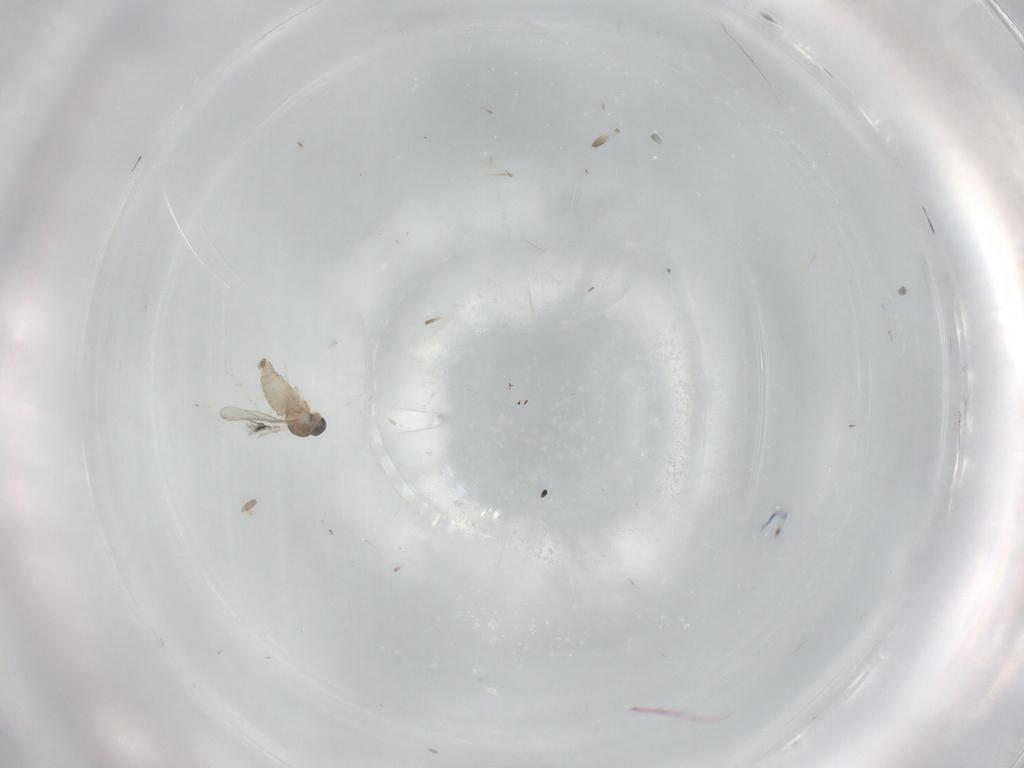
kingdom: Animalia
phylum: Arthropoda
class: Insecta
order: Diptera
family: Cecidomyiidae
